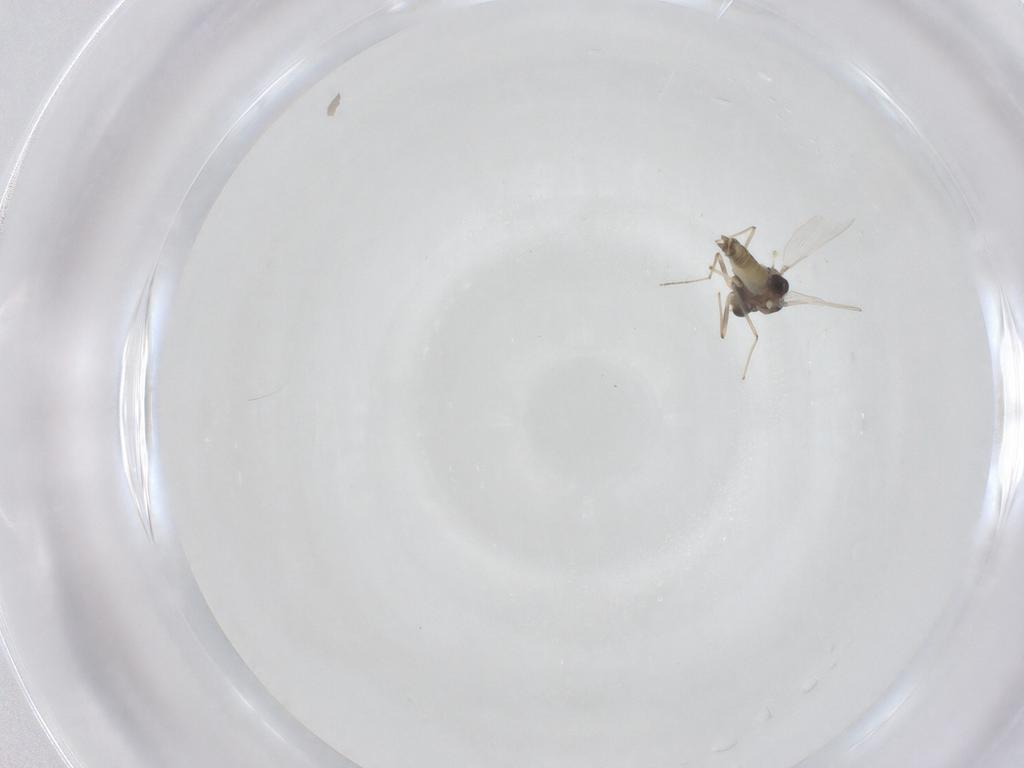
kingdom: Animalia
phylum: Arthropoda
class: Insecta
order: Diptera
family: Chironomidae
